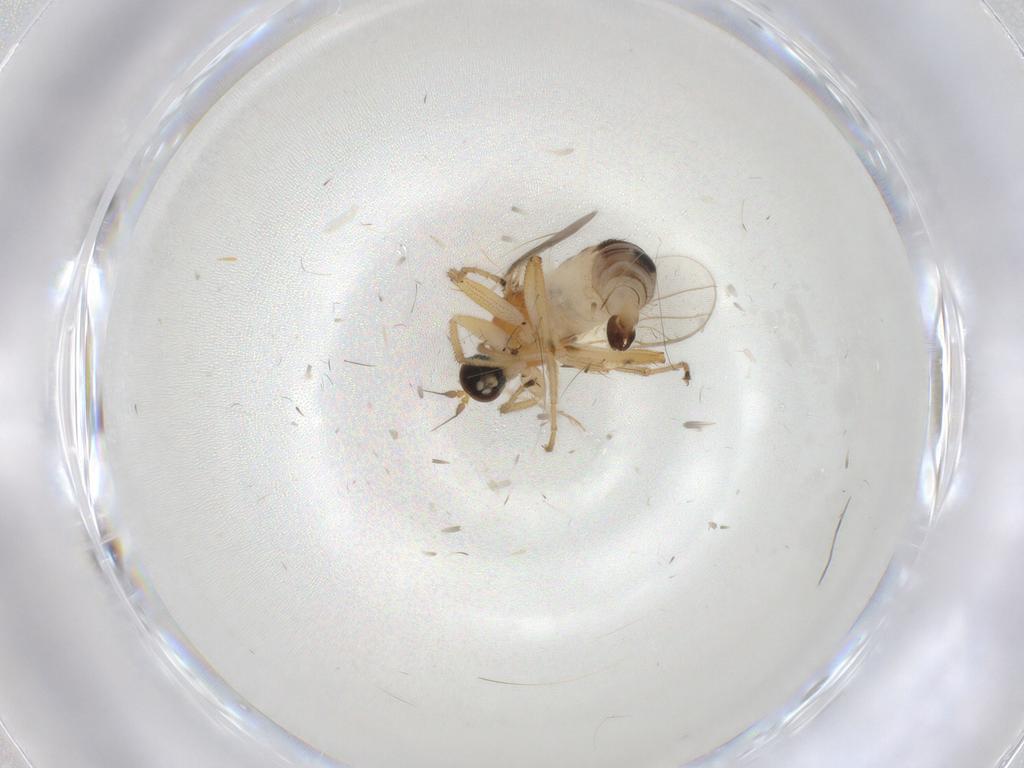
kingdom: Animalia
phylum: Arthropoda
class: Insecta
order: Diptera
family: Hybotidae
